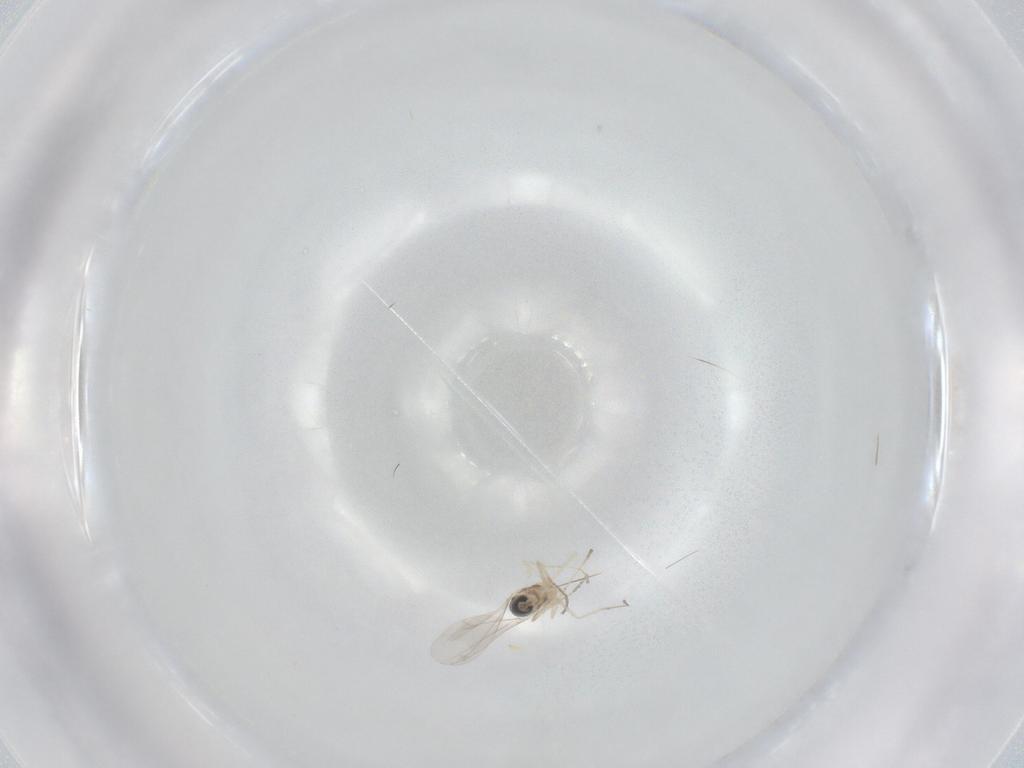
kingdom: Animalia
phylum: Arthropoda
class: Insecta
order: Diptera
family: Cecidomyiidae
